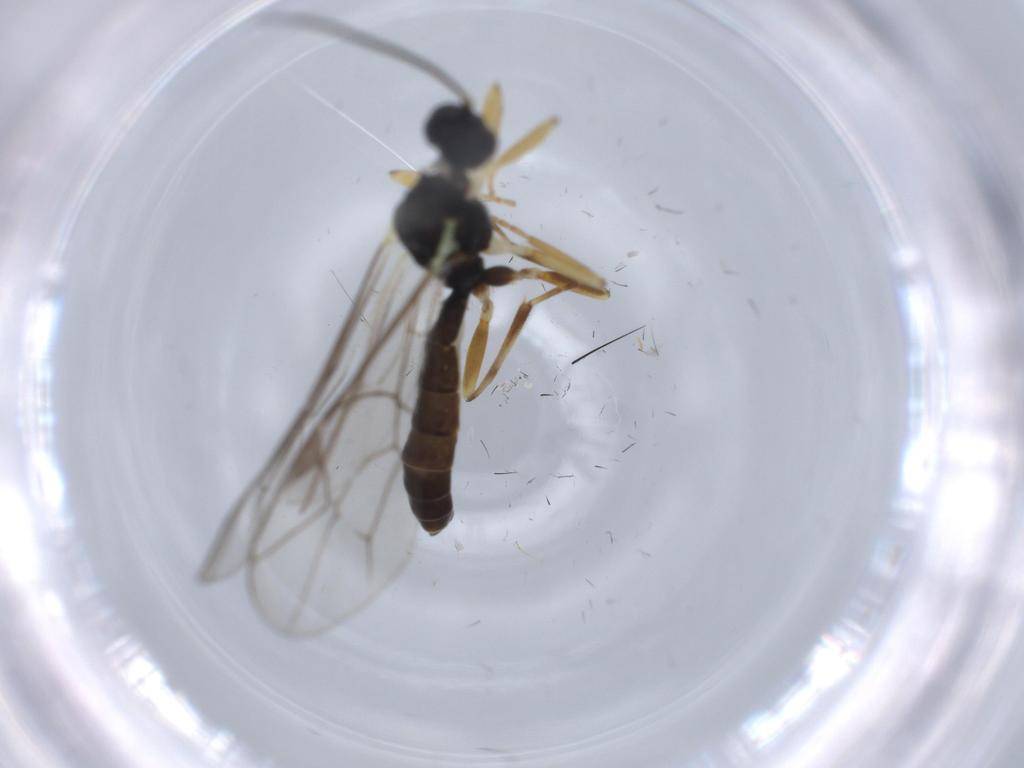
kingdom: Animalia
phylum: Arthropoda
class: Insecta
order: Hymenoptera
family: Ichneumonidae
